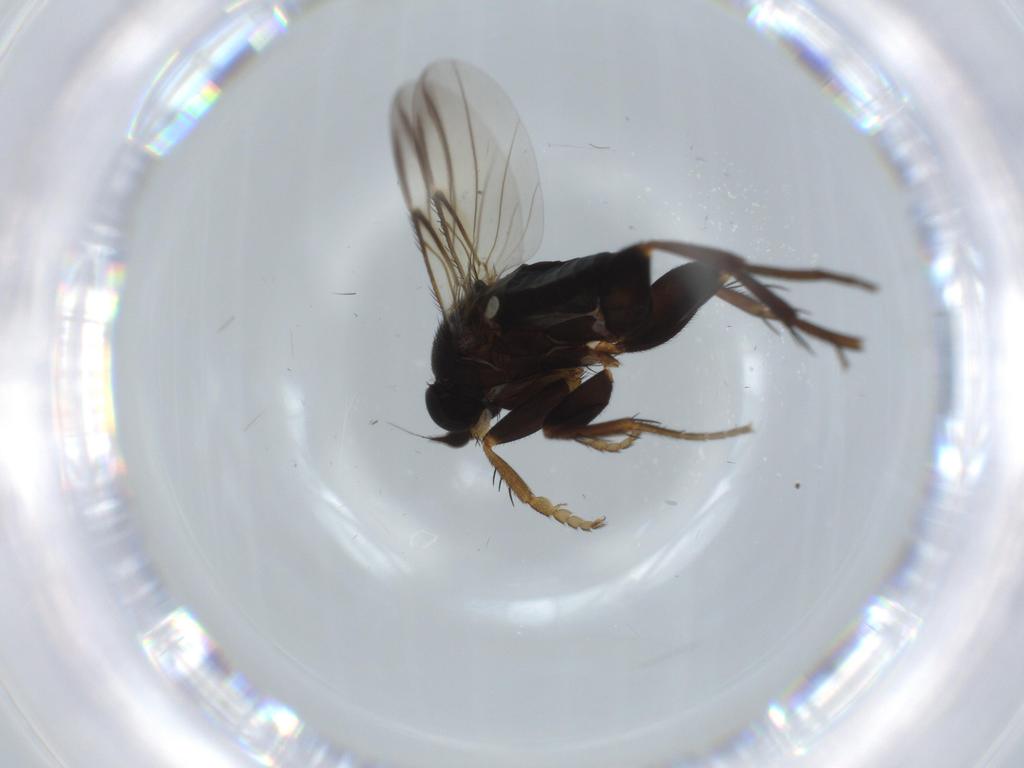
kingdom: Animalia
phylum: Arthropoda
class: Insecta
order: Diptera
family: Phoridae
